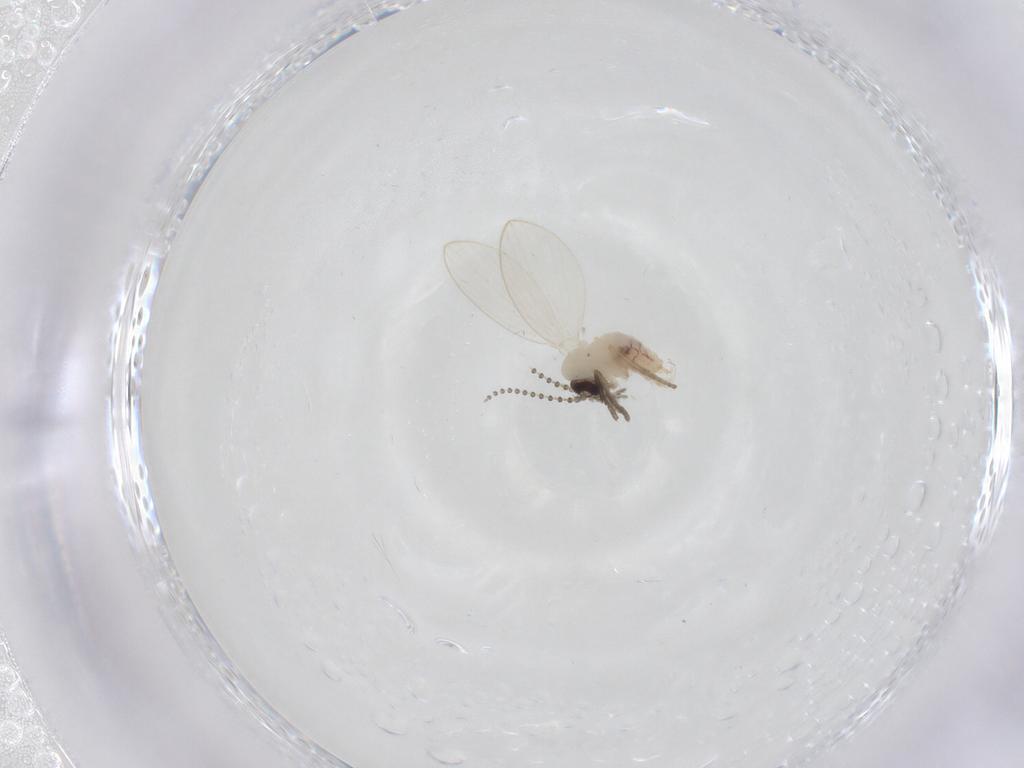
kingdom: Animalia
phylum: Arthropoda
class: Insecta
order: Diptera
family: Psychodidae
